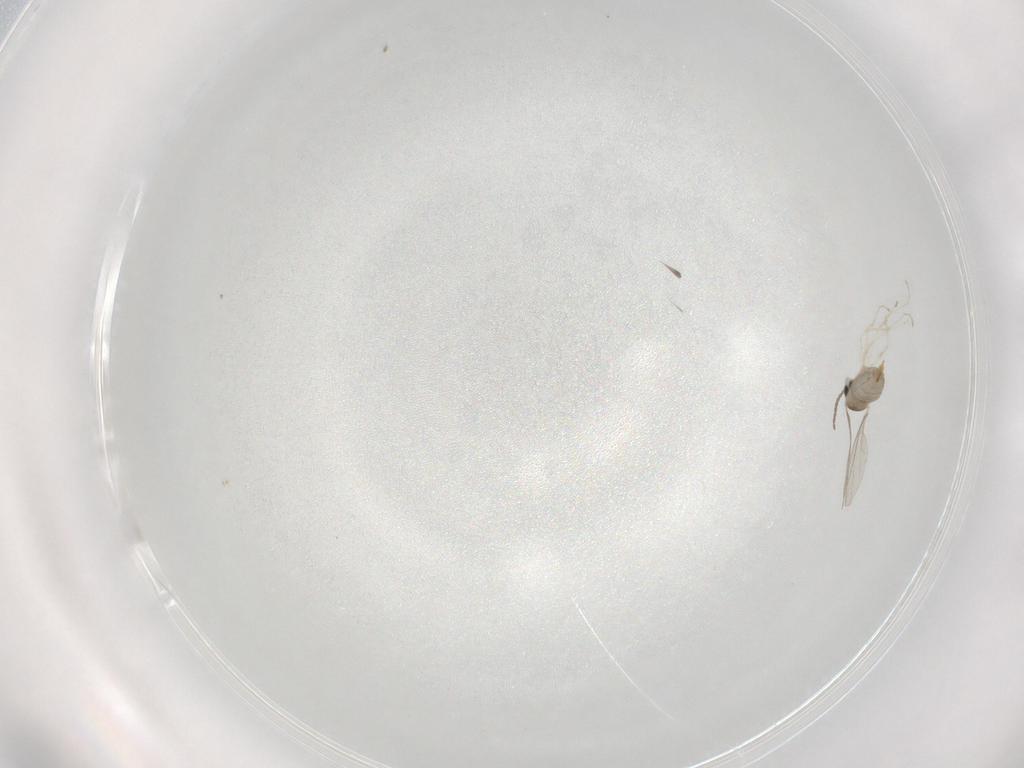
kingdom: Animalia
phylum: Arthropoda
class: Insecta
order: Diptera
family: Cecidomyiidae
